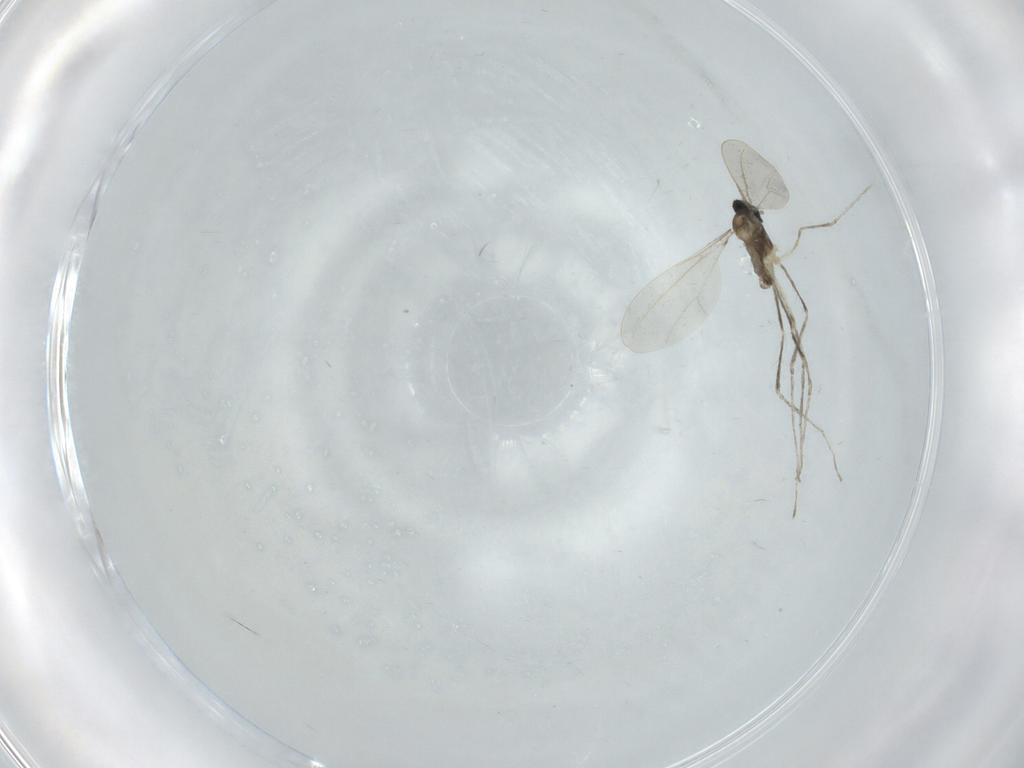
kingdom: Animalia
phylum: Arthropoda
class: Insecta
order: Diptera
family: Cecidomyiidae
